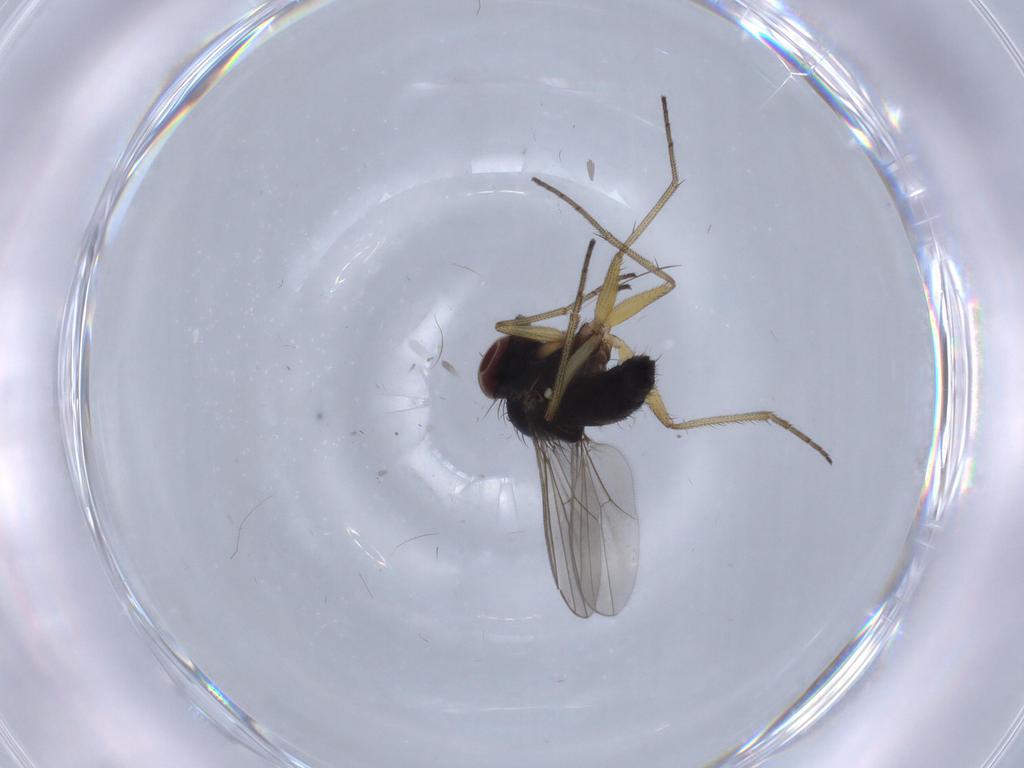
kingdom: Animalia
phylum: Arthropoda
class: Insecta
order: Diptera
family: Dolichopodidae
